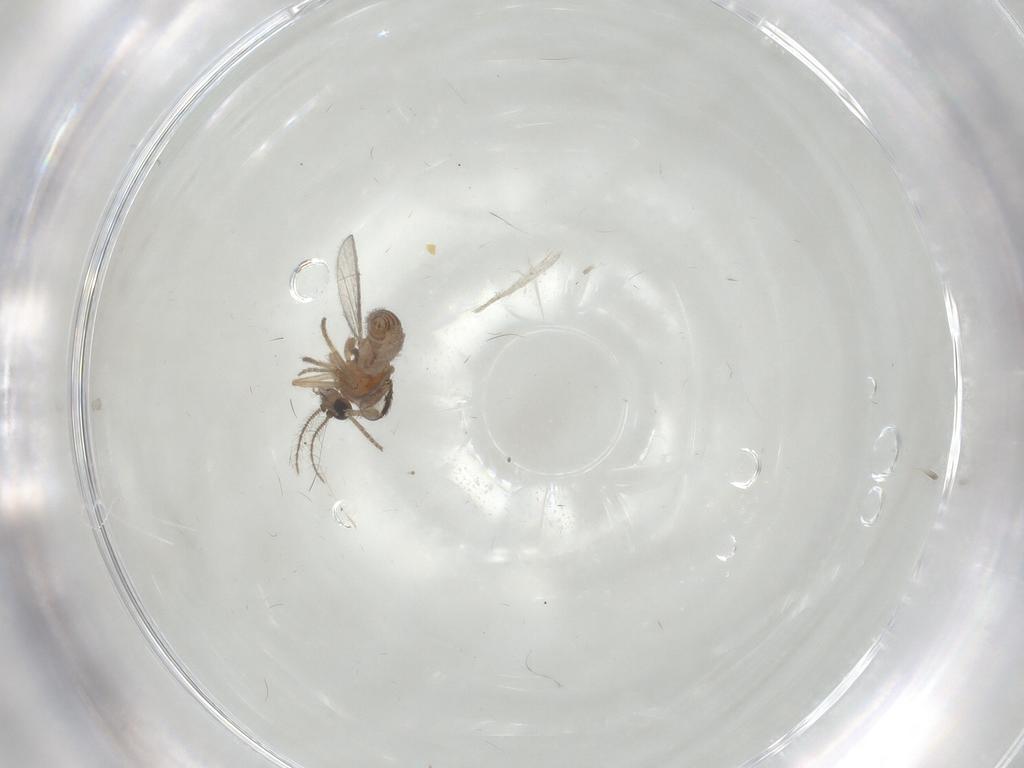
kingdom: Animalia
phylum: Arthropoda
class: Insecta
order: Diptera
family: Ceratopogonidae
